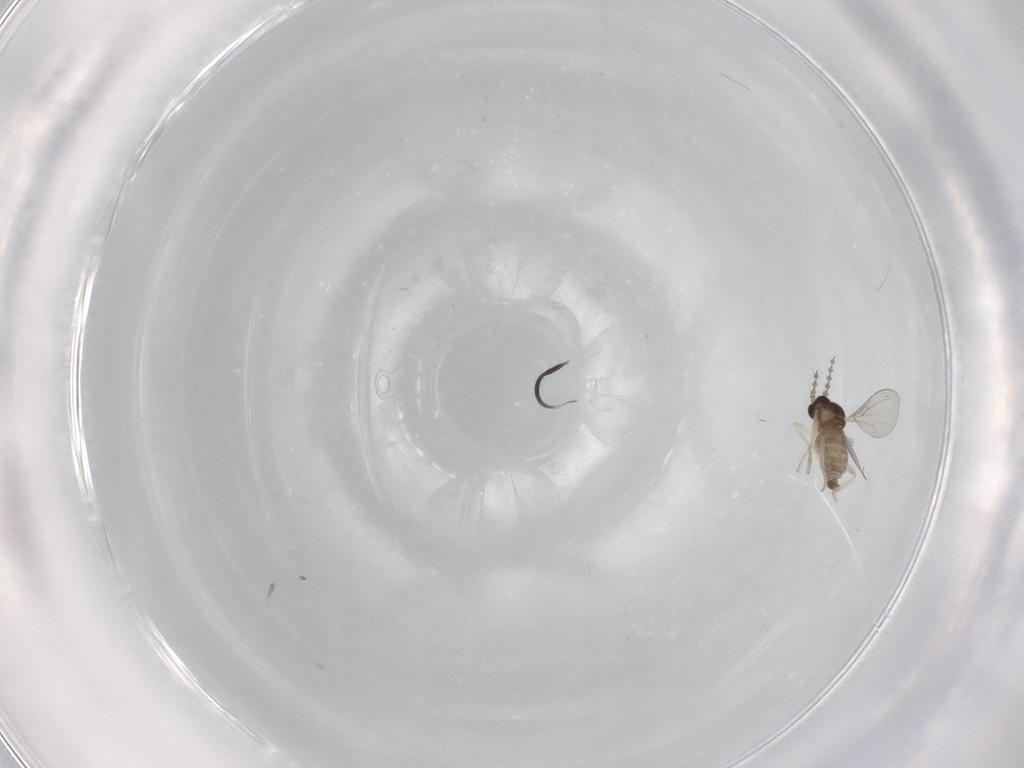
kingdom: Animalia
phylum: Arthropoda
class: Insecta
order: Diptera
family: Cecidomyiidae
